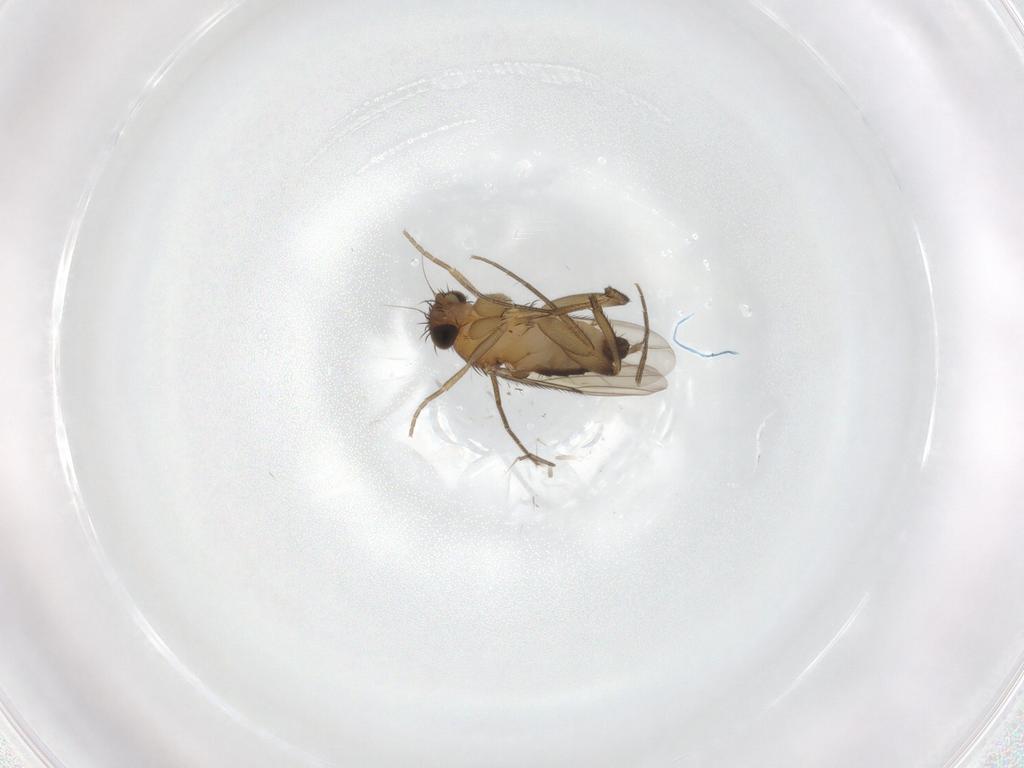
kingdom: Animalia
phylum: Arthropoda
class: Insecta
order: Diptera
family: Phoridae
